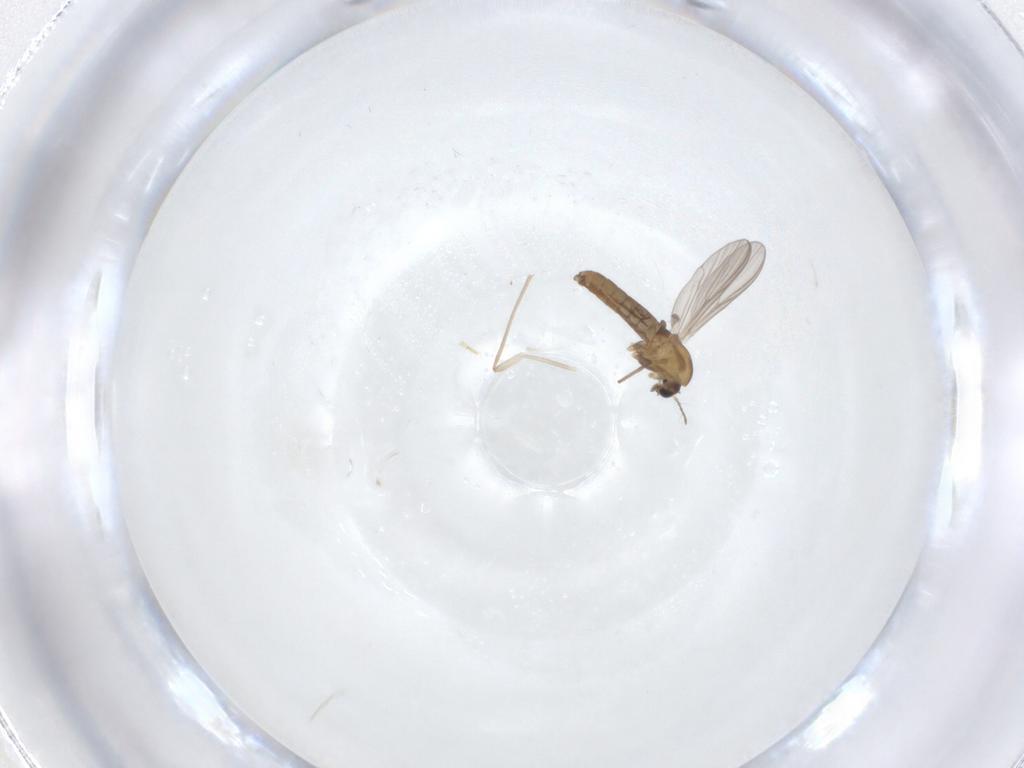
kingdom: Animalia
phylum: Arthropoda
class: Insecta
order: Diptera
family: Chironomidae
